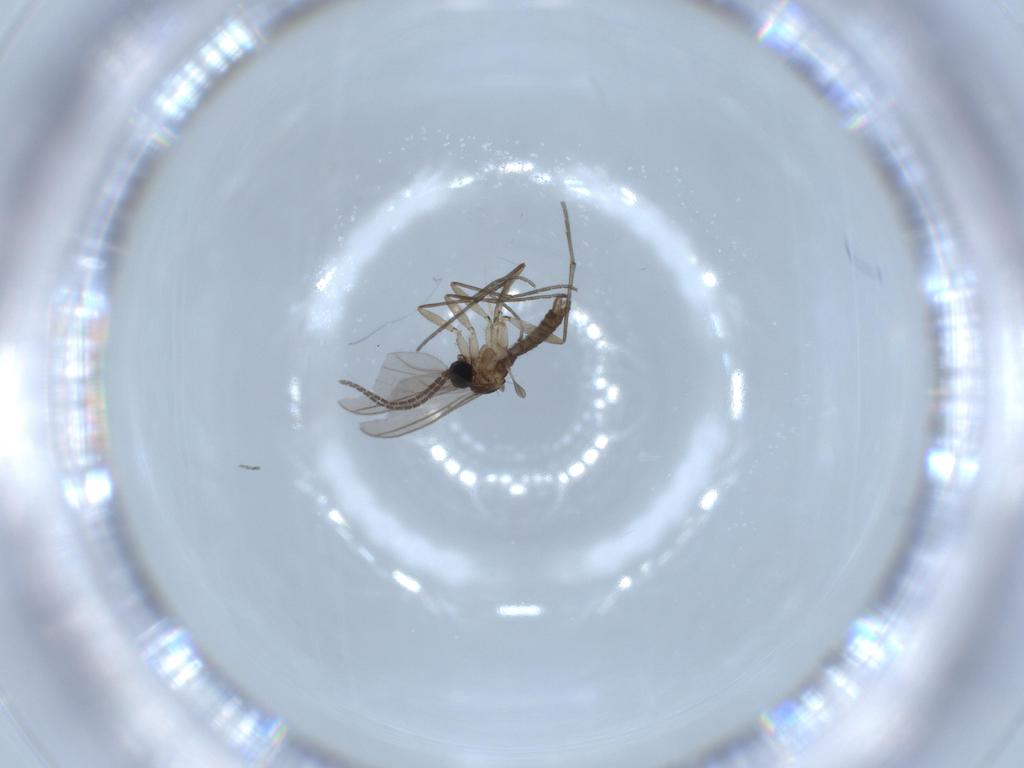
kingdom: Animalia
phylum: Arthropoda
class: Insecta
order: Diptera
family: Sciaridae
